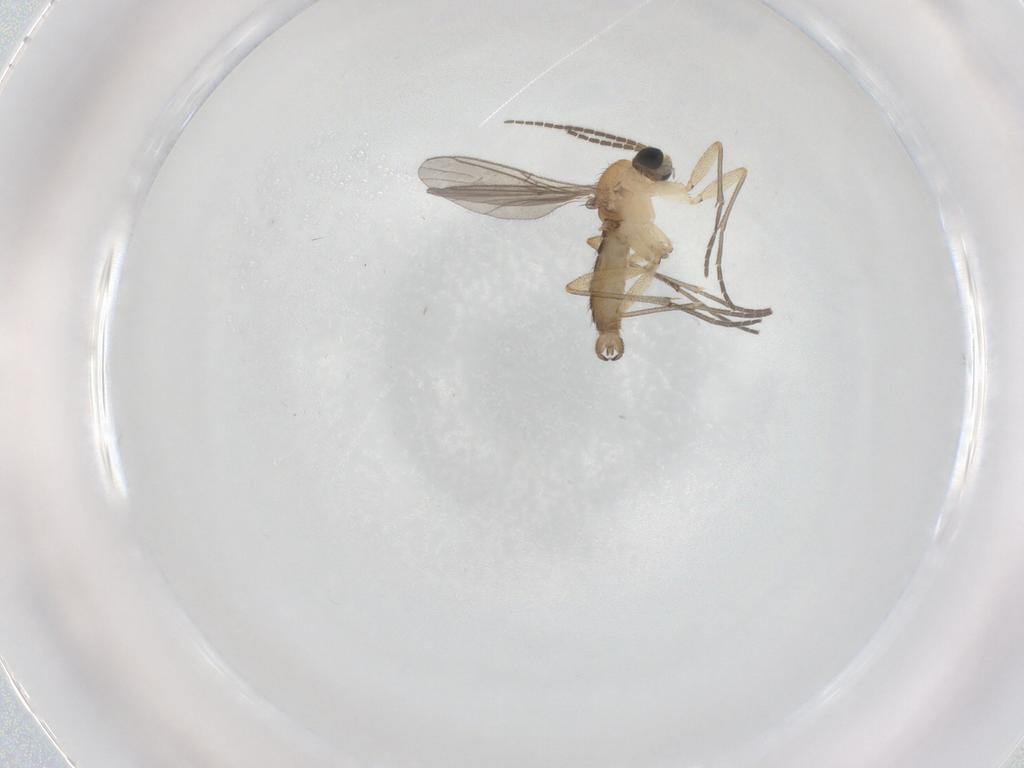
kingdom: Animalia
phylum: Arthropoda
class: Insecta
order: Diptera
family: Sciaridae
